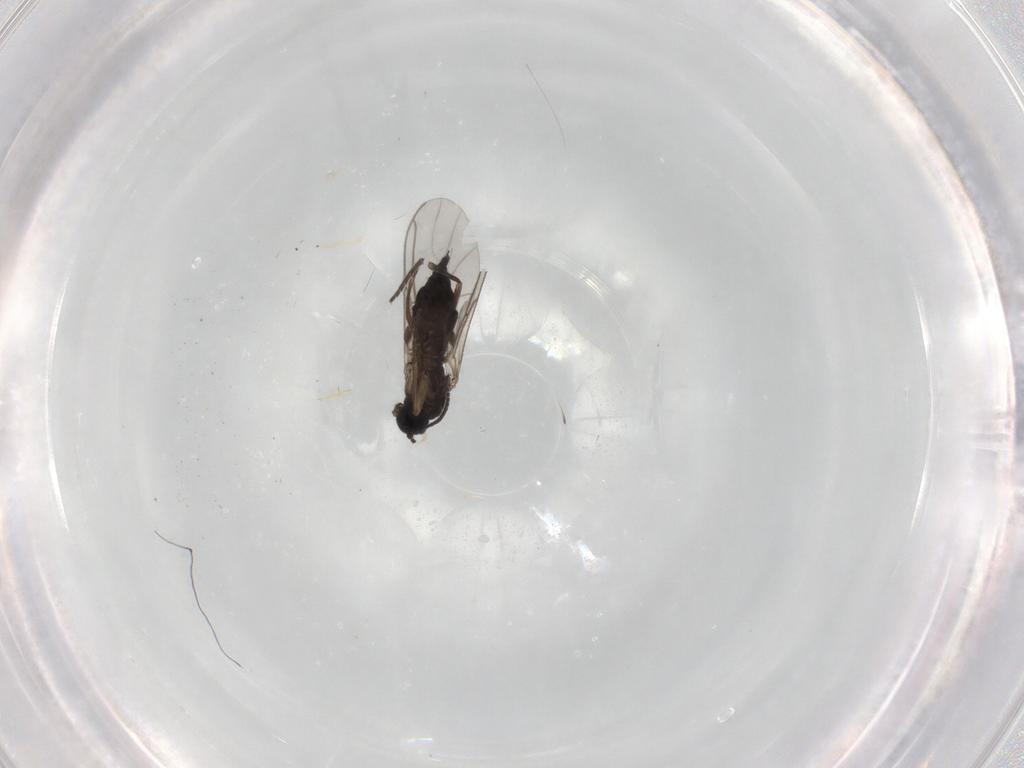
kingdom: Animalia
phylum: Arthropoda
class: Insecta
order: Diptera
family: Sciaridae
